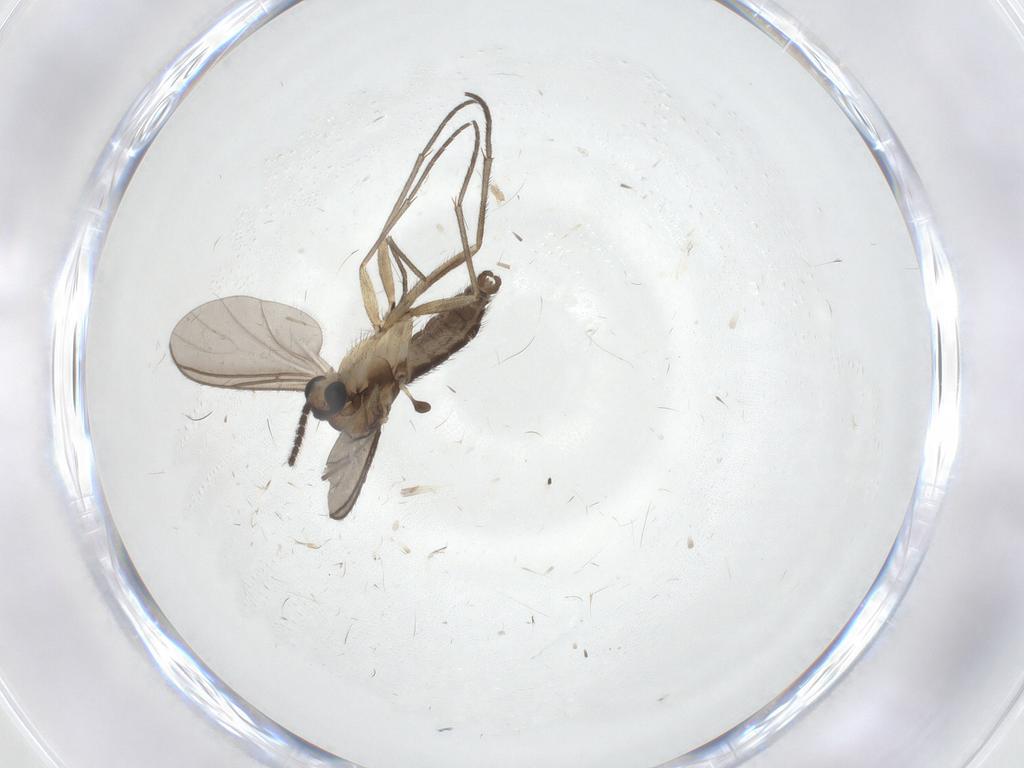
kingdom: Animalia
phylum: Arthropoda
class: Insecta
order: Diptera
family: Sciaridae
